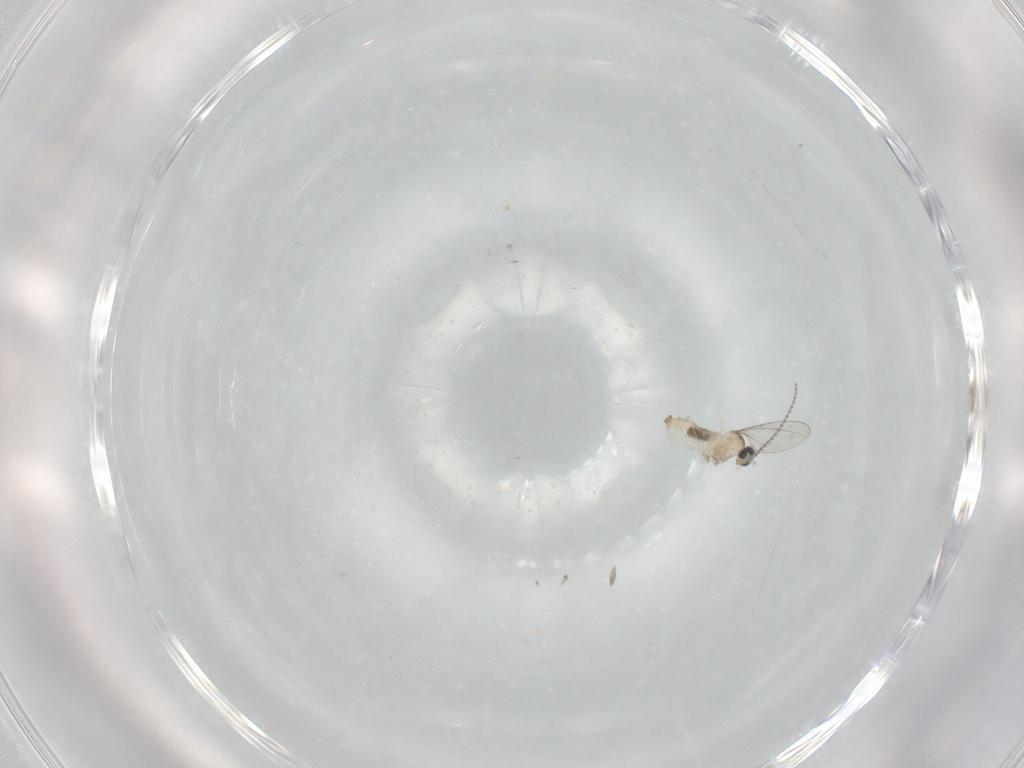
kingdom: Animalia
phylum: Arthropoda
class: Insecta
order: Diptera
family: Cecidomyiidae
